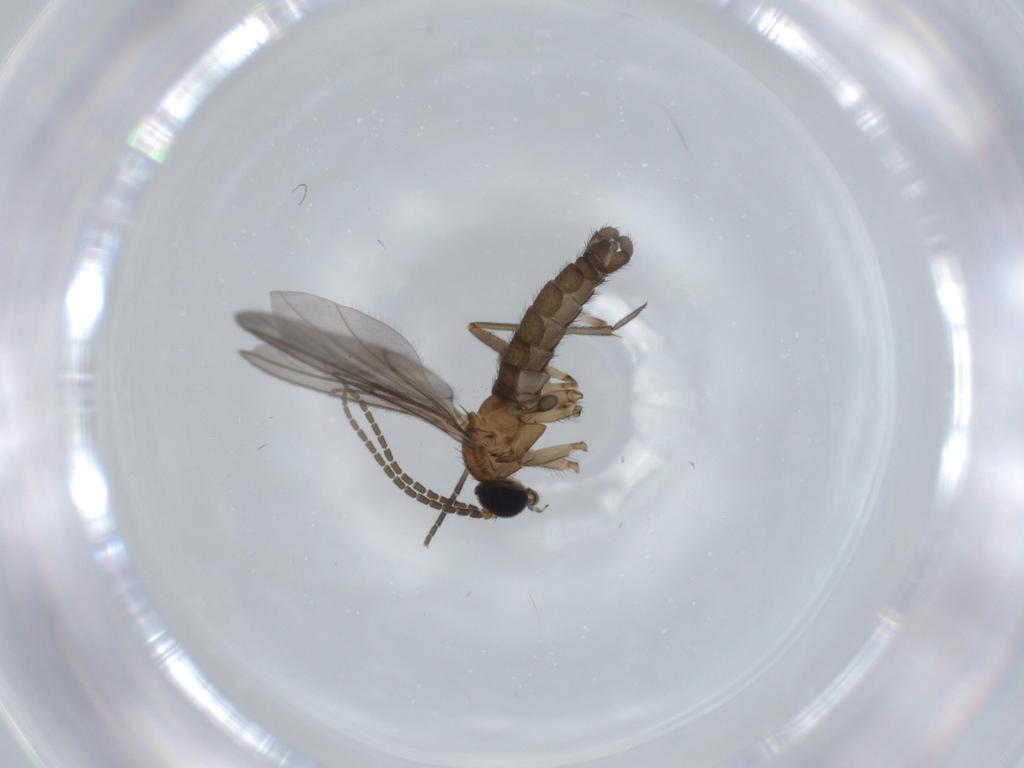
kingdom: Animalia
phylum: Arthropoda
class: Insecta
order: Diptera
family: Sciaridae
